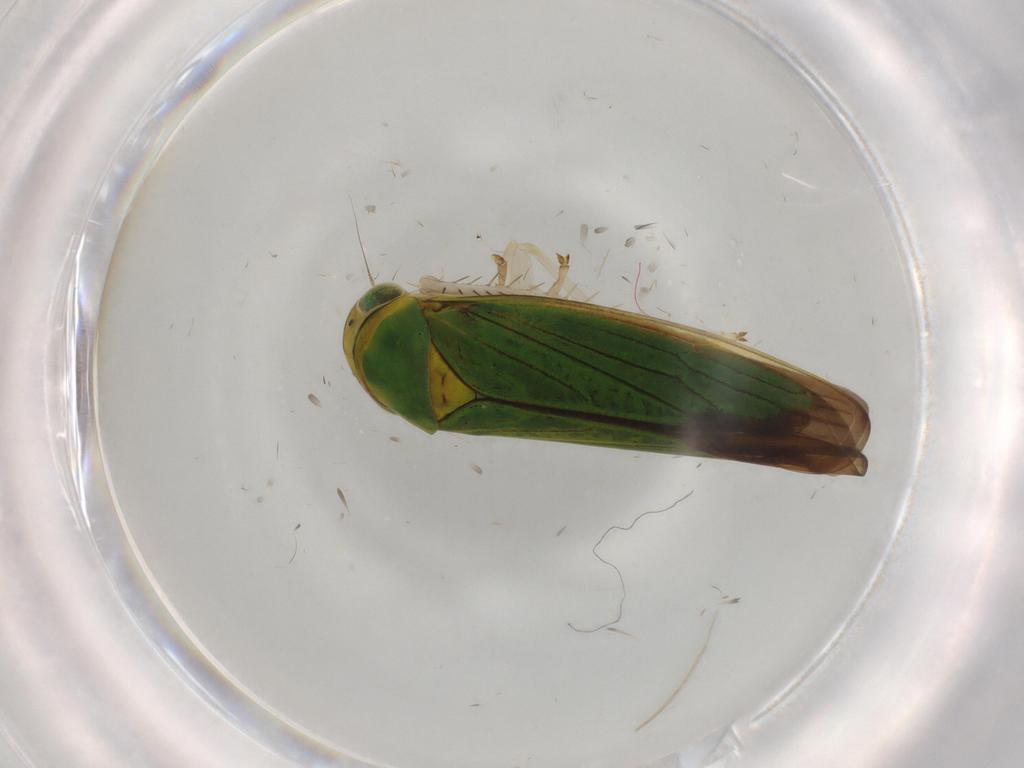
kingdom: Animalia
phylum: Arthropoda
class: Insecta
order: Hemiptera
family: Cicadellidae
